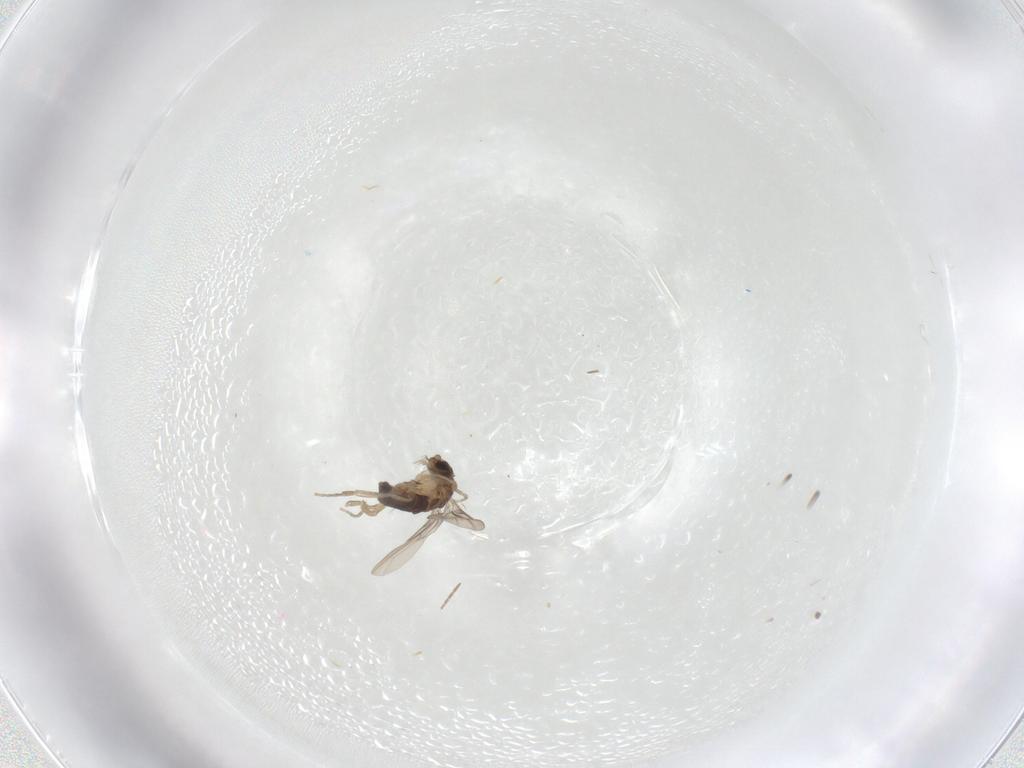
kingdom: Animalia
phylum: Arthropoda
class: Insecta
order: Diptera
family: Phoridae
